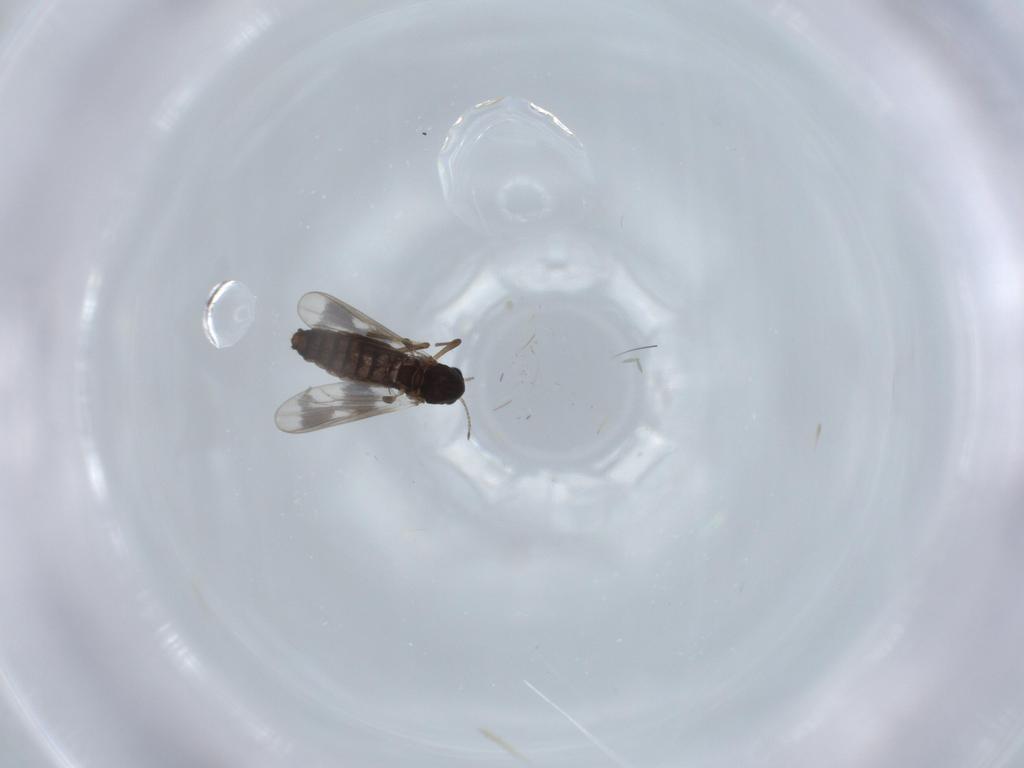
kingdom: Animalia
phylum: Arthropoda
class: Insecta
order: Diptera
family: Chironomidae
